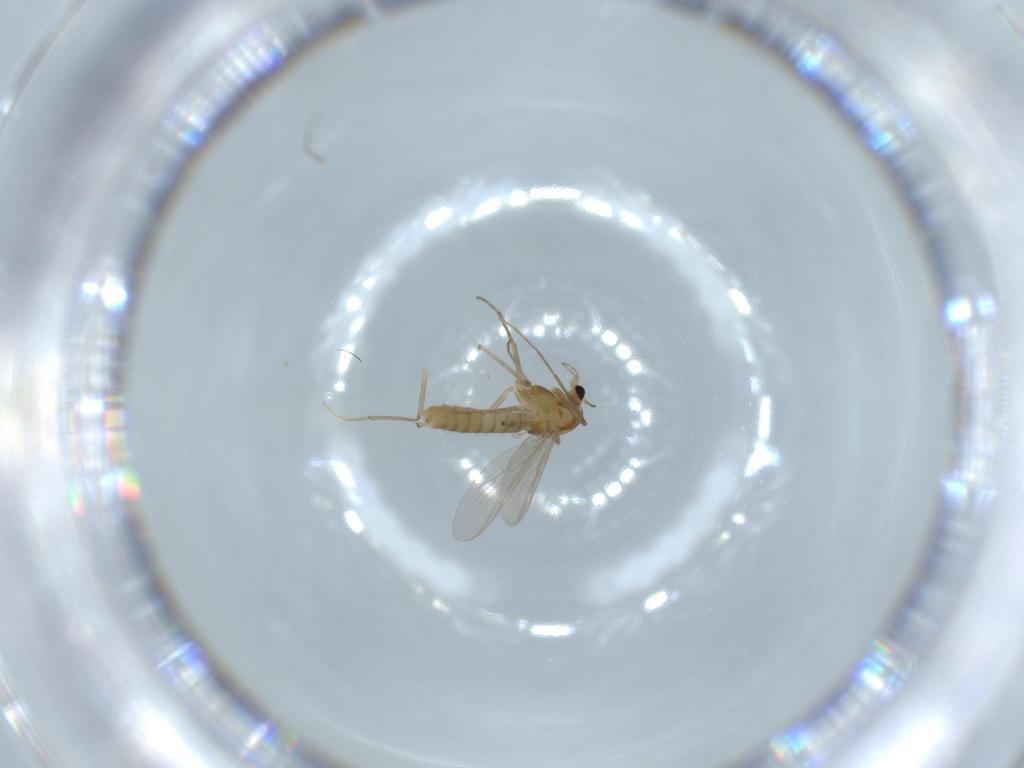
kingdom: Animalia
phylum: Arthropoda
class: Insecta
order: Diptera
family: Chironomidae
